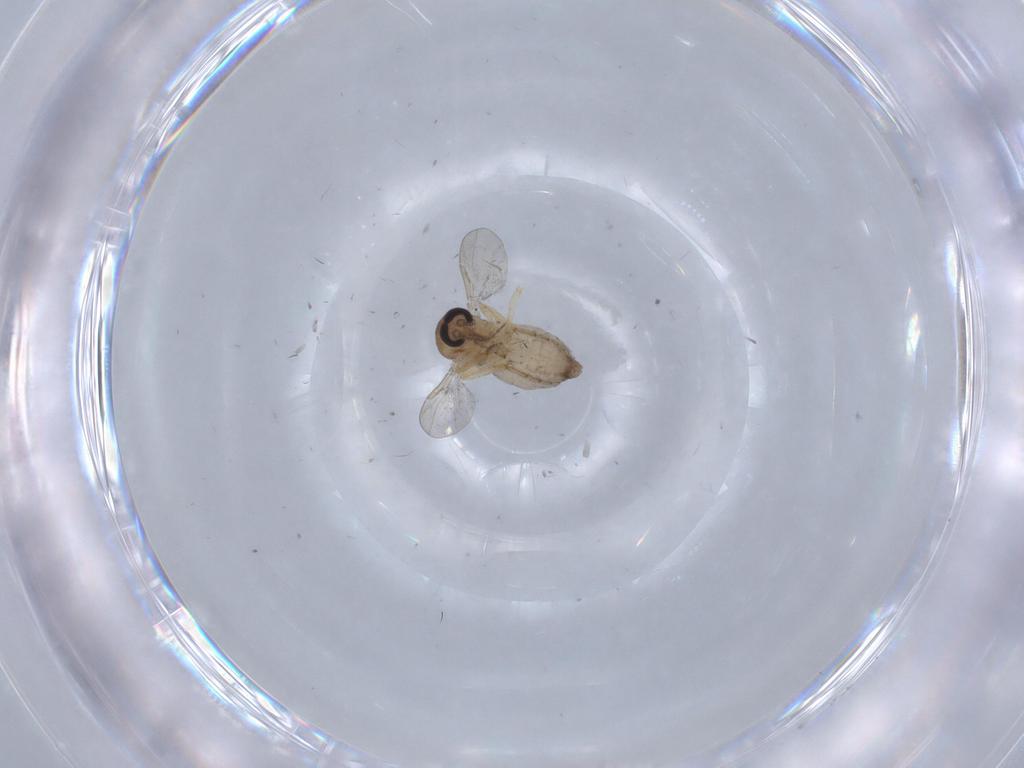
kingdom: Animalia
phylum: Arthropoda
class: Insecta
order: Diptera
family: Ceratopogonidae
